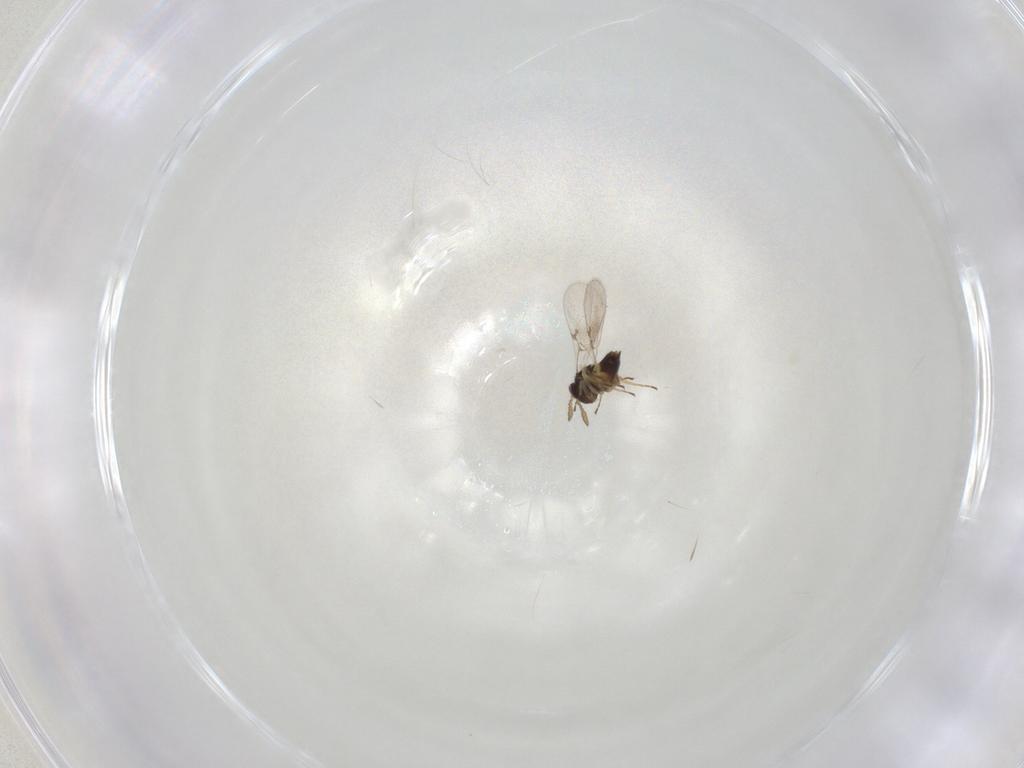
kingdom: Animalia
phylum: Arthropoda
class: Insecta
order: Hymenoptera
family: Eulophidae
